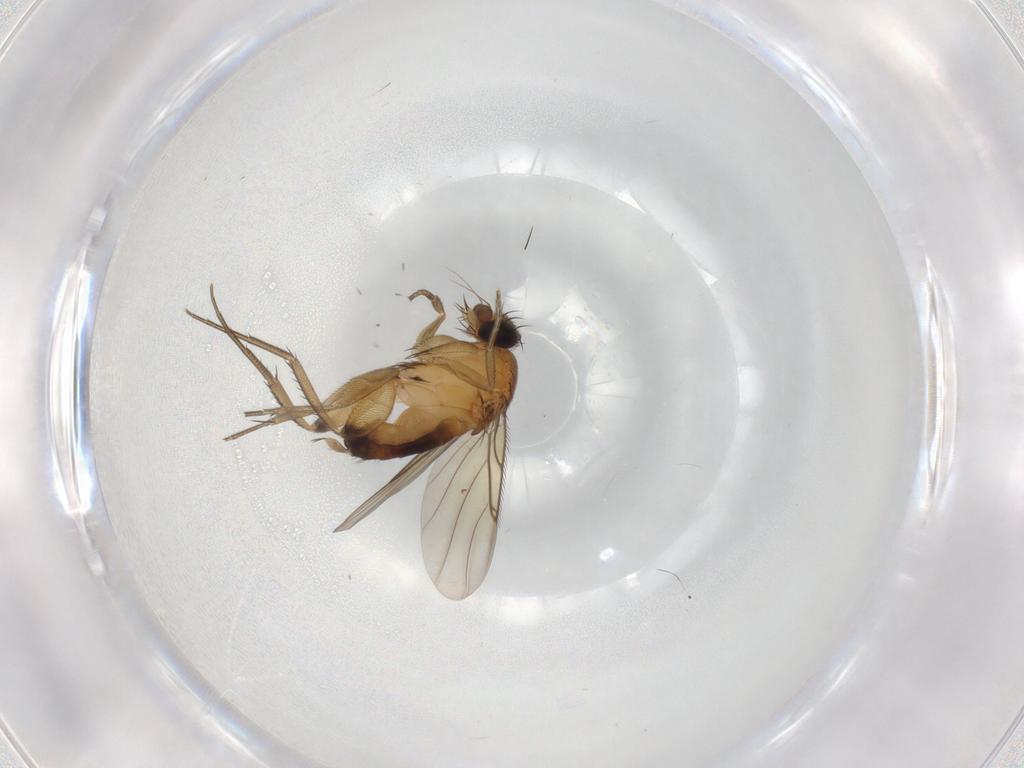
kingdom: Animalia
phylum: Arthropoda
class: Insecta
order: Diptera
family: Phoridae
